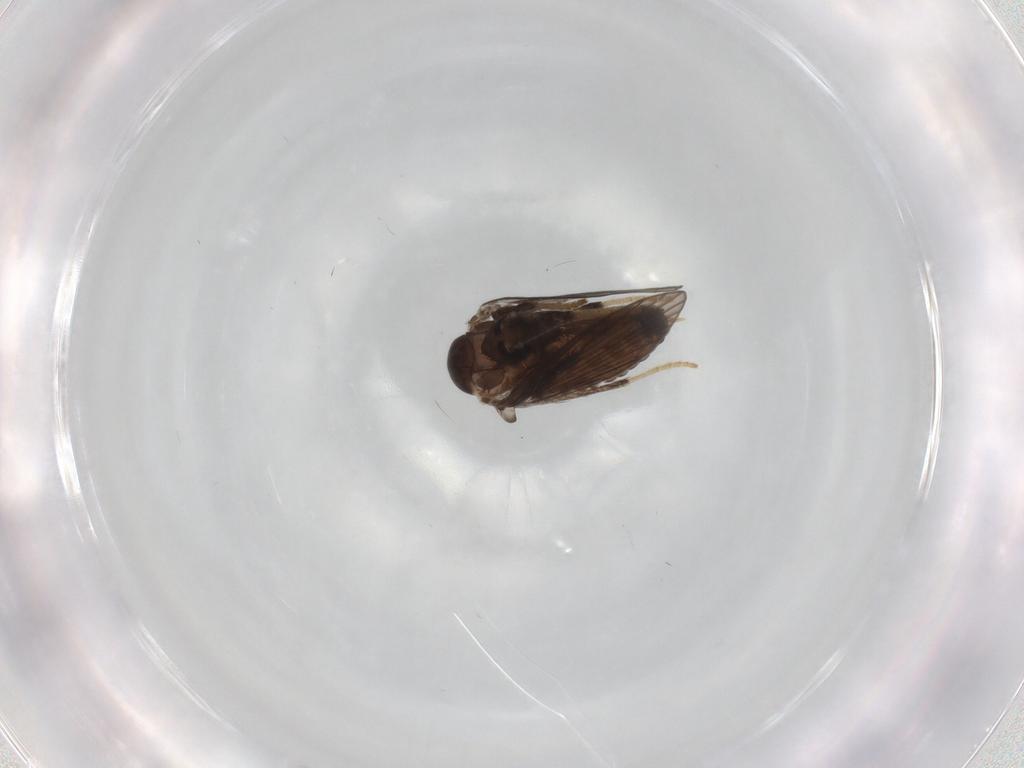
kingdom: Animalia
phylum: Arthropoda
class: Insecta
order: Diptera
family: Psychodidae
